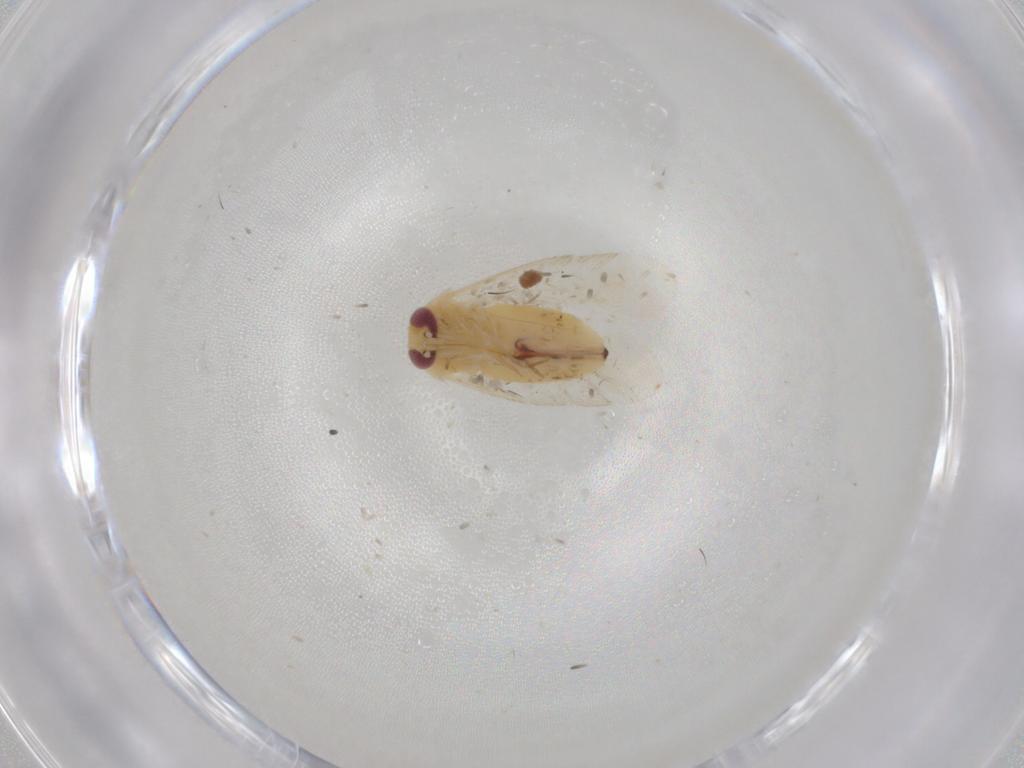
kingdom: Animalia
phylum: Arthropoda
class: Insecta
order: Hemiptera
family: Miridae
